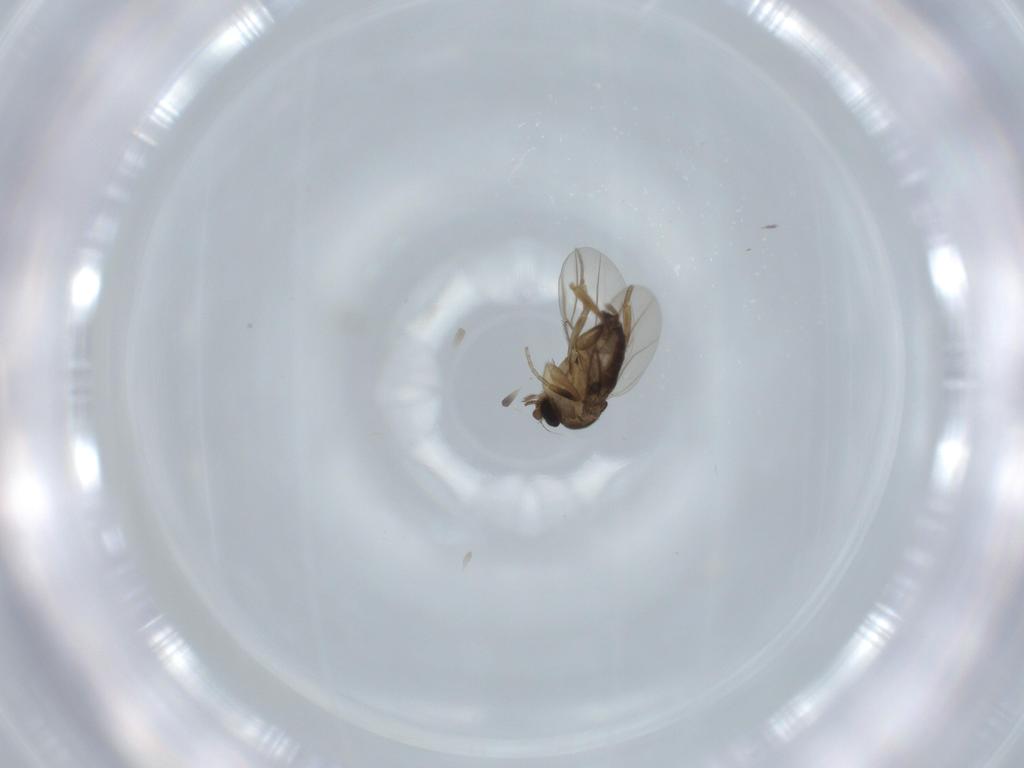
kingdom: Animalia
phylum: Arthropoda
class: Insecta
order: Diptera
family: Phoridae
